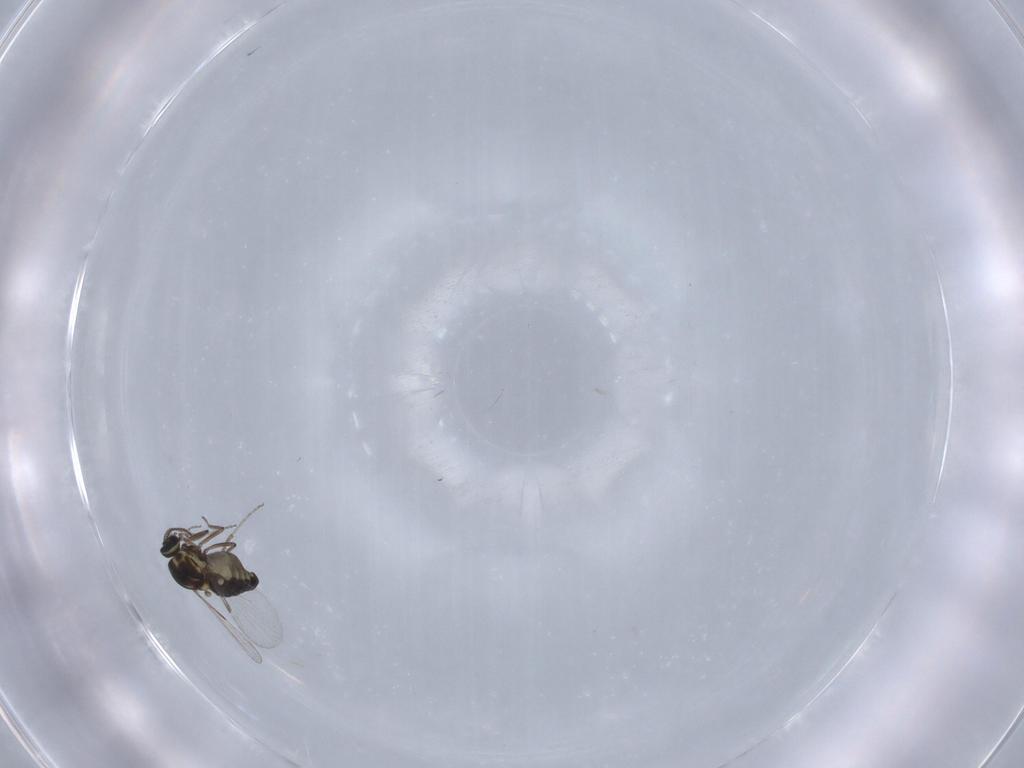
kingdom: Animalia
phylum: Arthropoda
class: Insecta
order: Diptera
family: Ceratopogonidae
